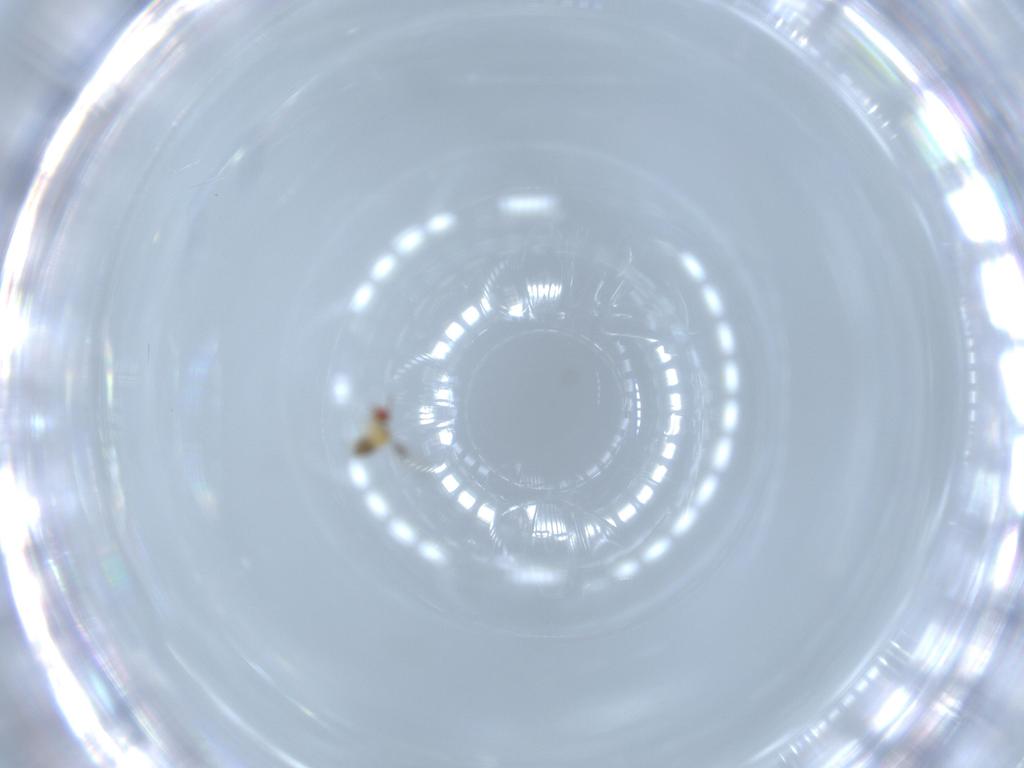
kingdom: Animalia
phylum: Arthropoda
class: Insecta
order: Hymenoptera
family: Trichogrammatidae
